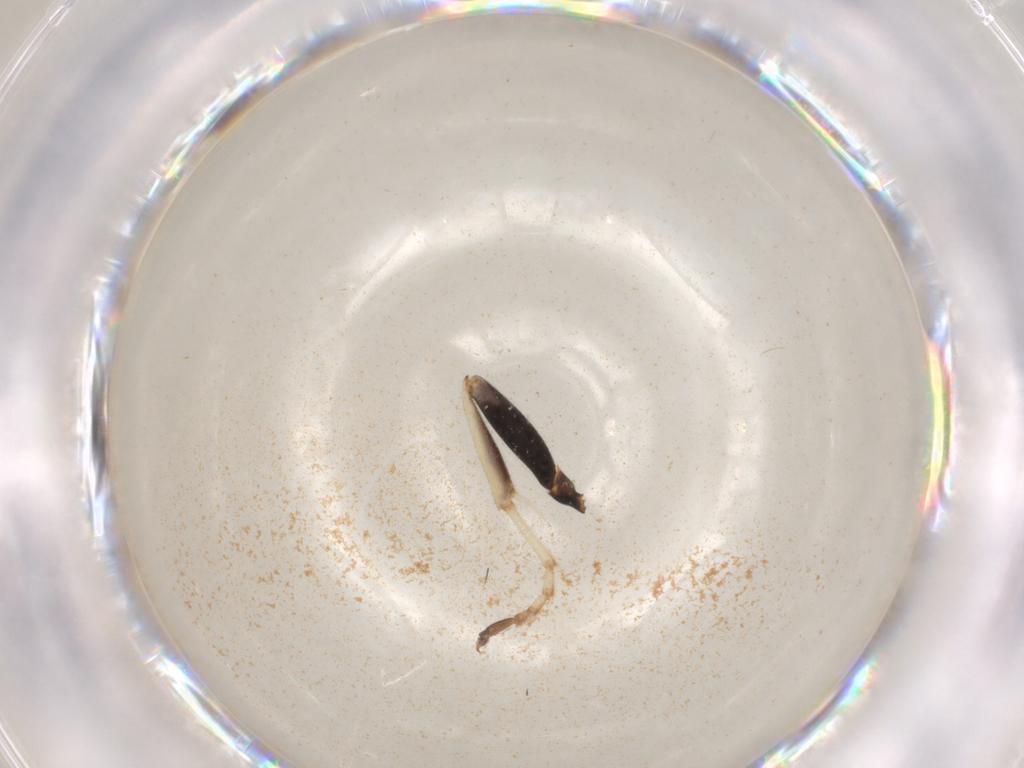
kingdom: Animalia
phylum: Arthropoda
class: Insecta
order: Hymenoptera
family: Ichneumonidae
